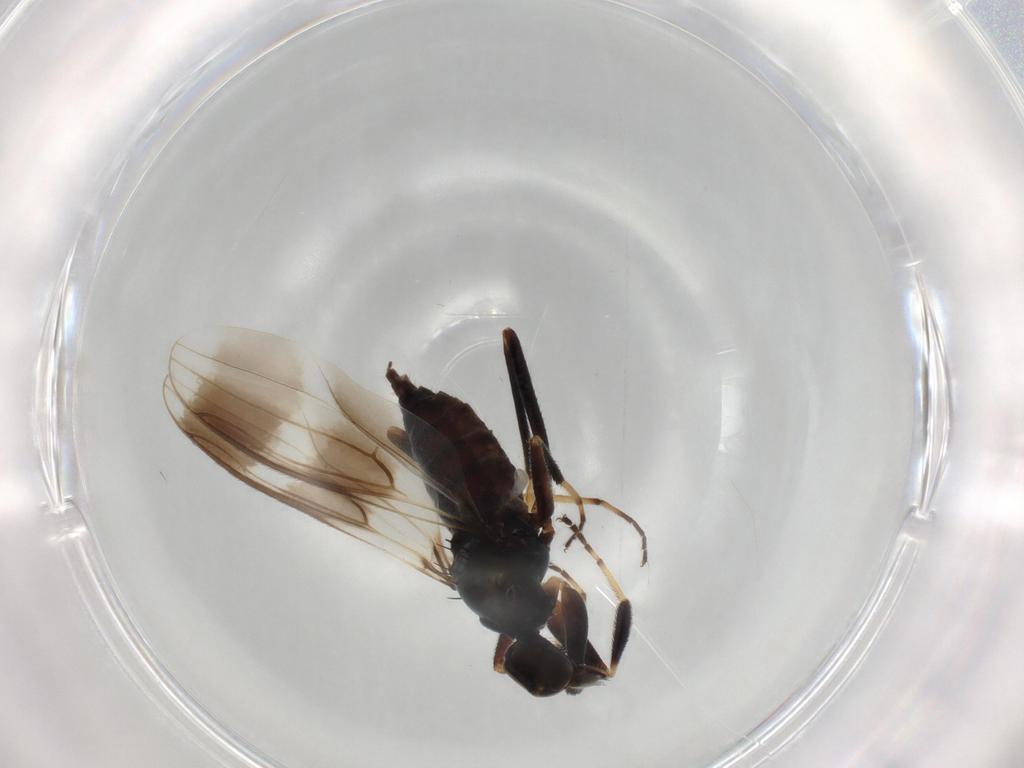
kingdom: Animalia
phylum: Arthropoda
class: Insecta
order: Diptera
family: Hybotidae
